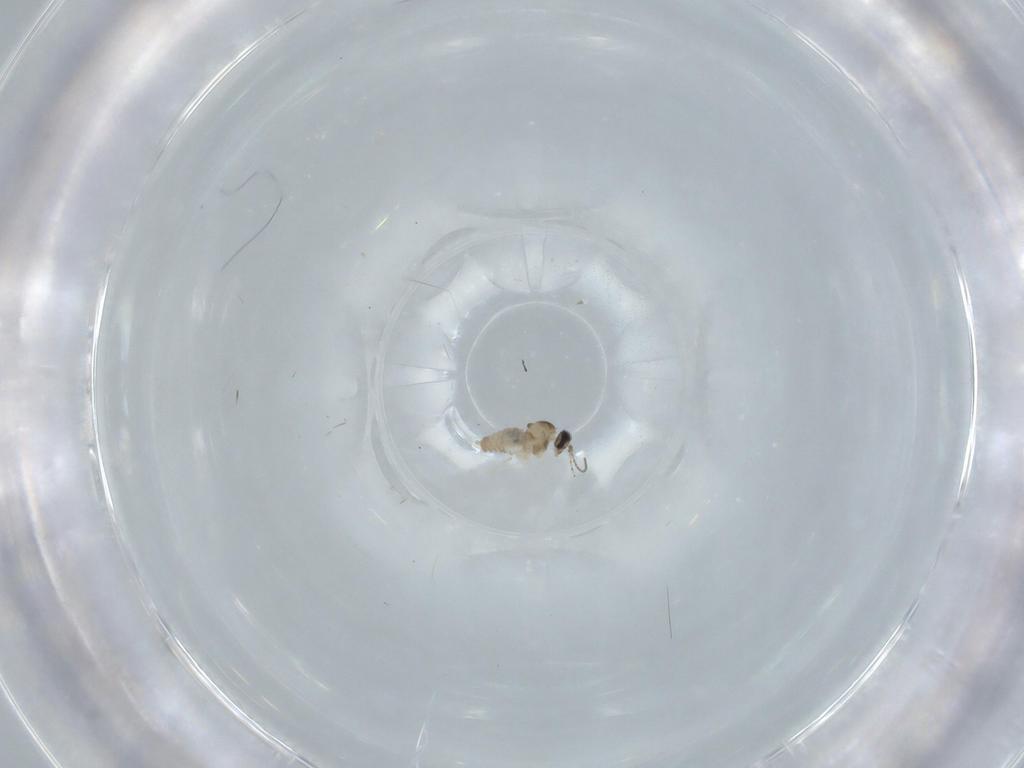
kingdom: Animalia
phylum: Arthropoda
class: Insecta
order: Diptera
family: Cecidomyiidae
